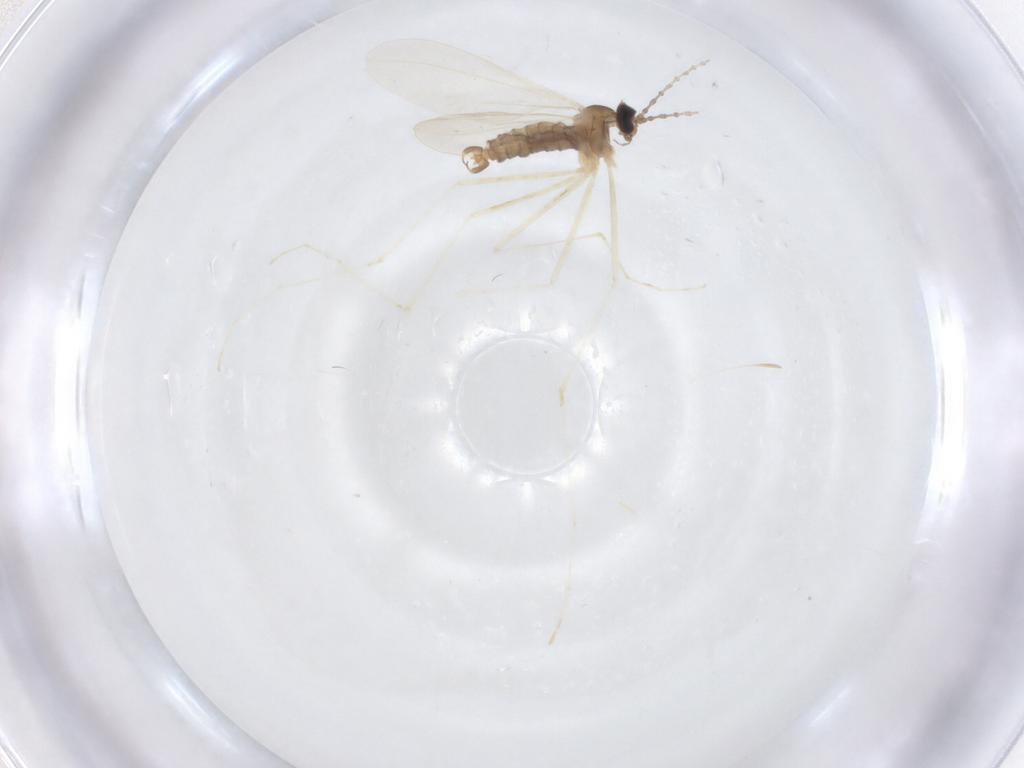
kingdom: Animalia
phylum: Arthropoda
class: Insecta
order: Diptera
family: Cecidomyiidae
